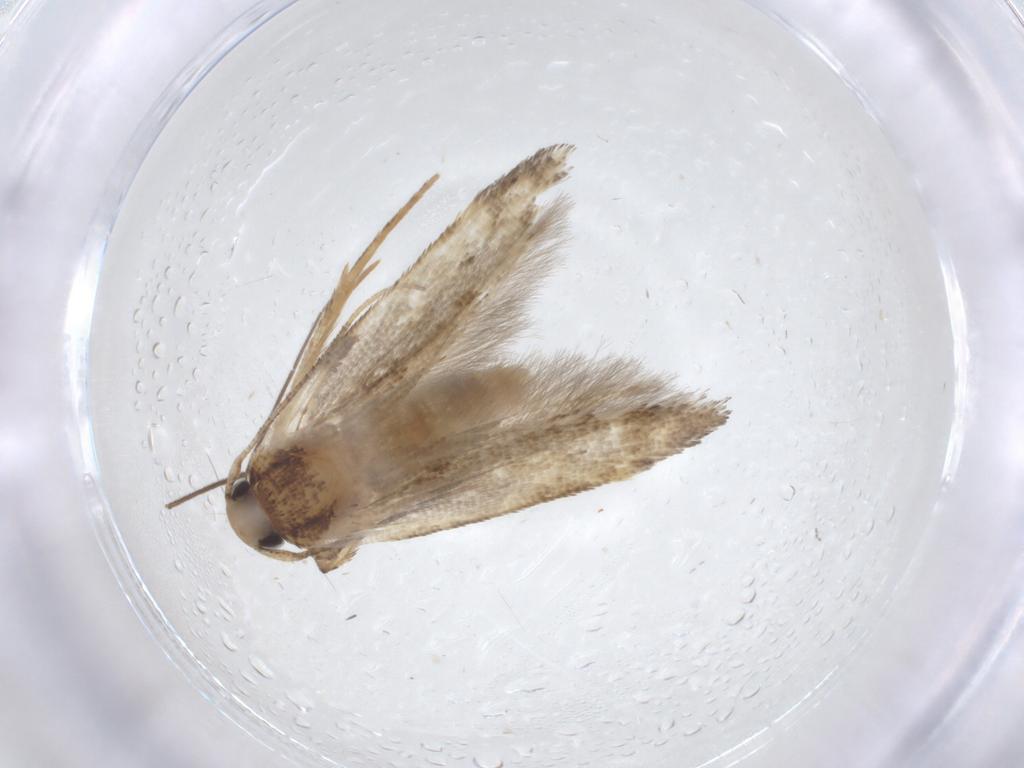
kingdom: Animalia
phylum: Arthropoda
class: Insecta
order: Lepidoptera
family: Gelechiidae
